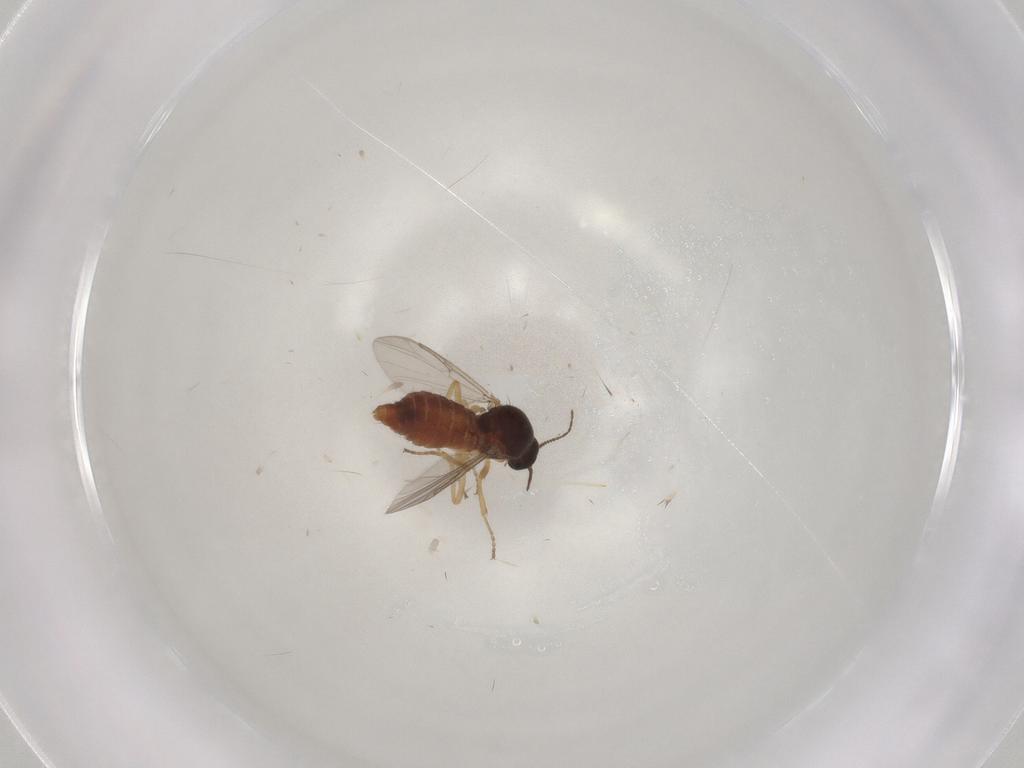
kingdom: Animalia
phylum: Arthropoda
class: Insecta
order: Diptera
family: Ceratopogonidae
